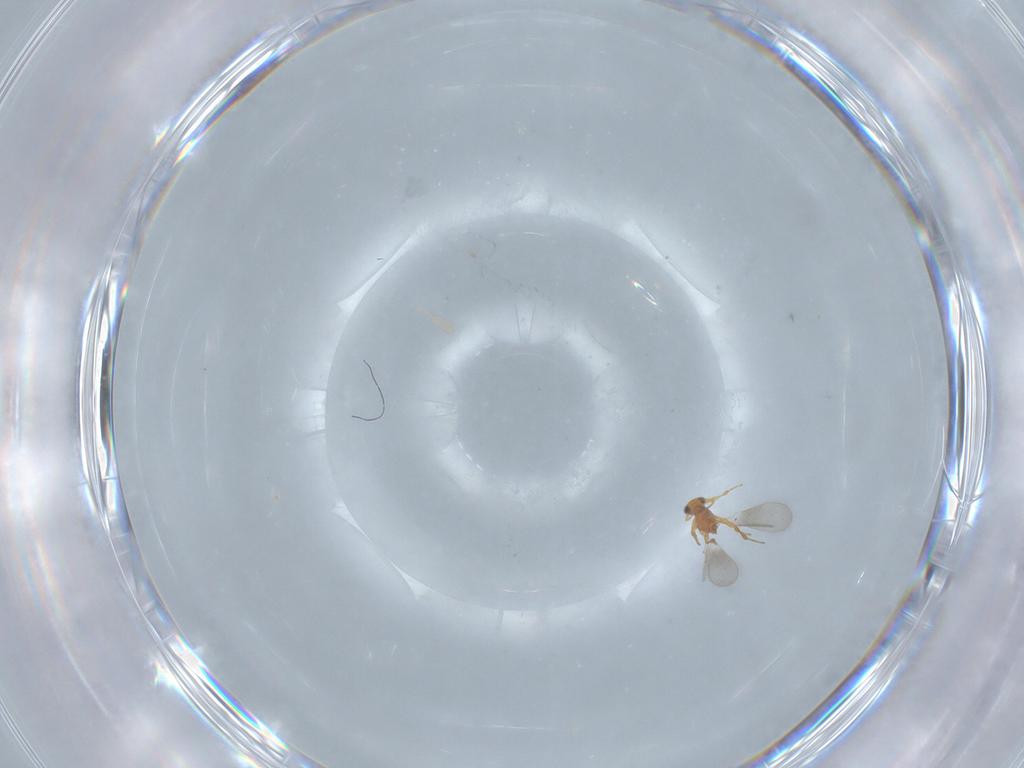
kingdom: Animalia
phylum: Arthropoda
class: Insecta
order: Hymenoptera
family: Platygastridae
